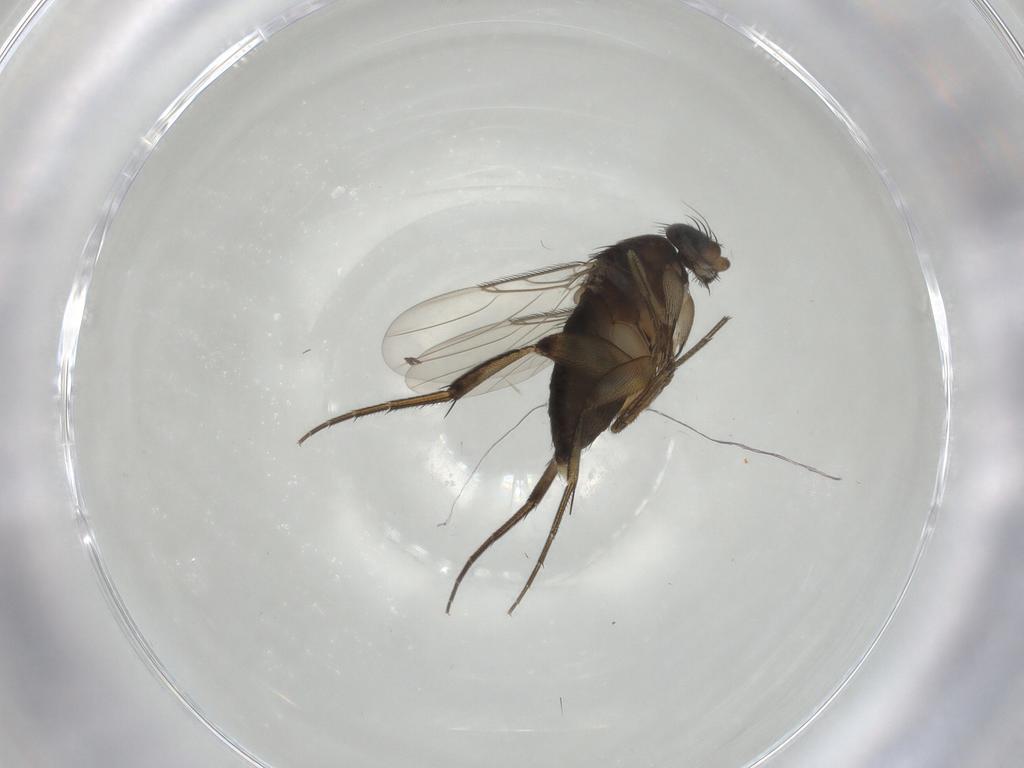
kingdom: Animalia
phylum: Arthropoda
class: Insecta
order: Diptera
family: Phoridae
